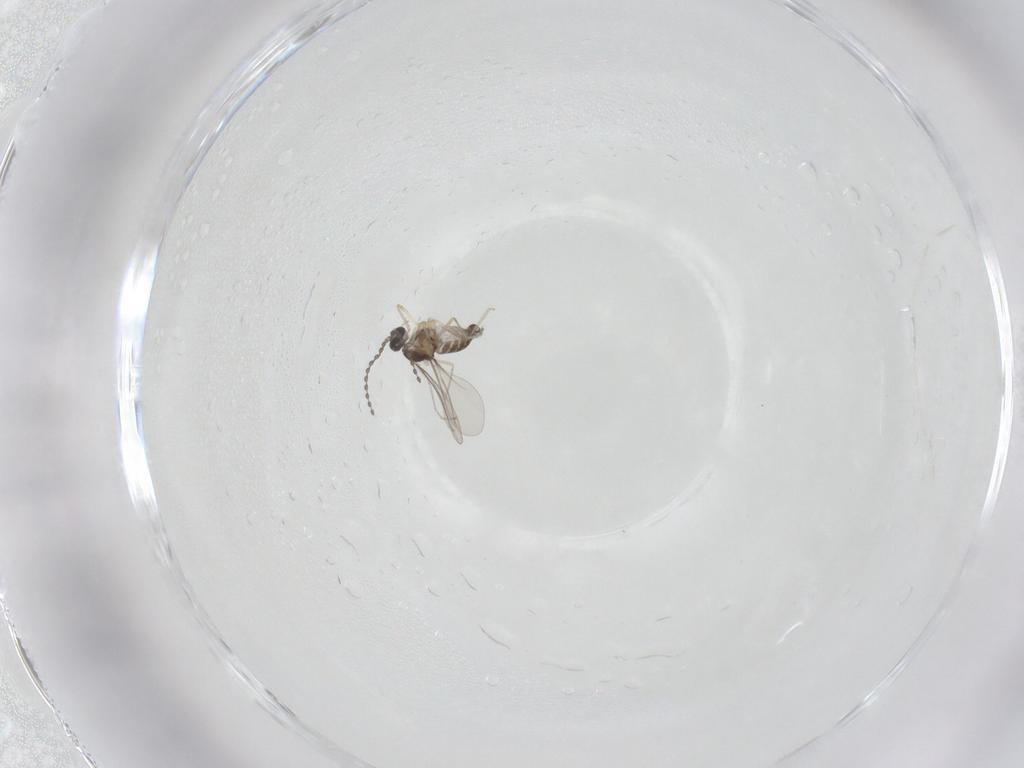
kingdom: Animalia
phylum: Arthropoda
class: Insecta
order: Diptera
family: Cecidomyiidae
